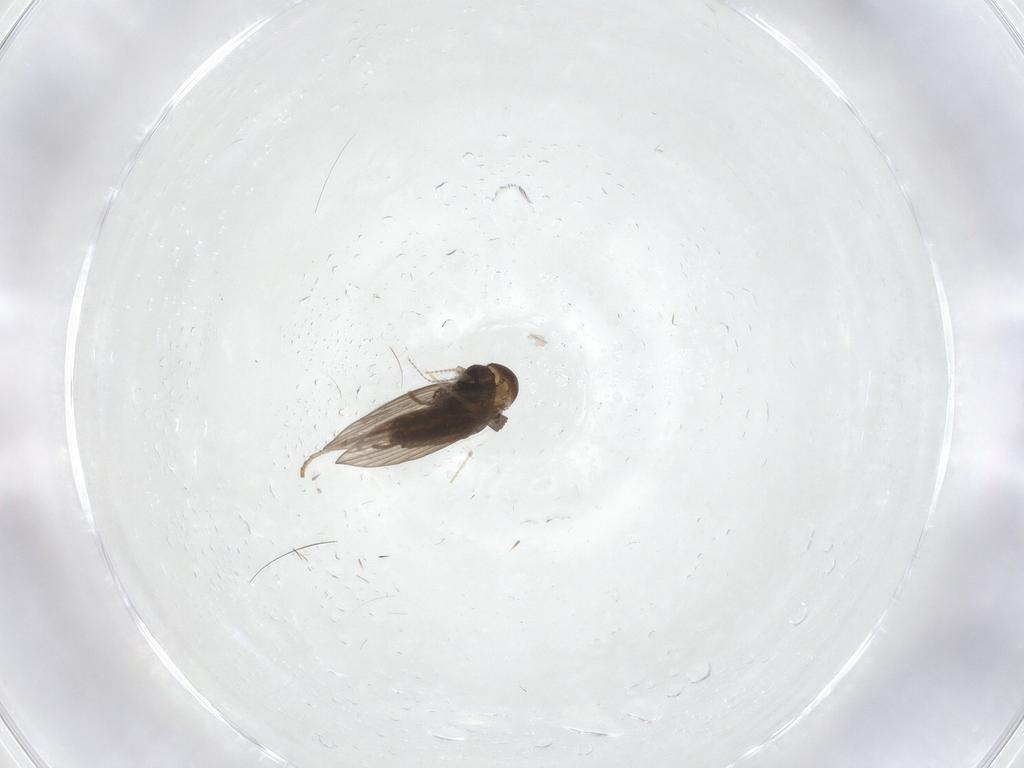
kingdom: Animalia
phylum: Arthropoda
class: Insecta
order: Diptera
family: Psychodidae
